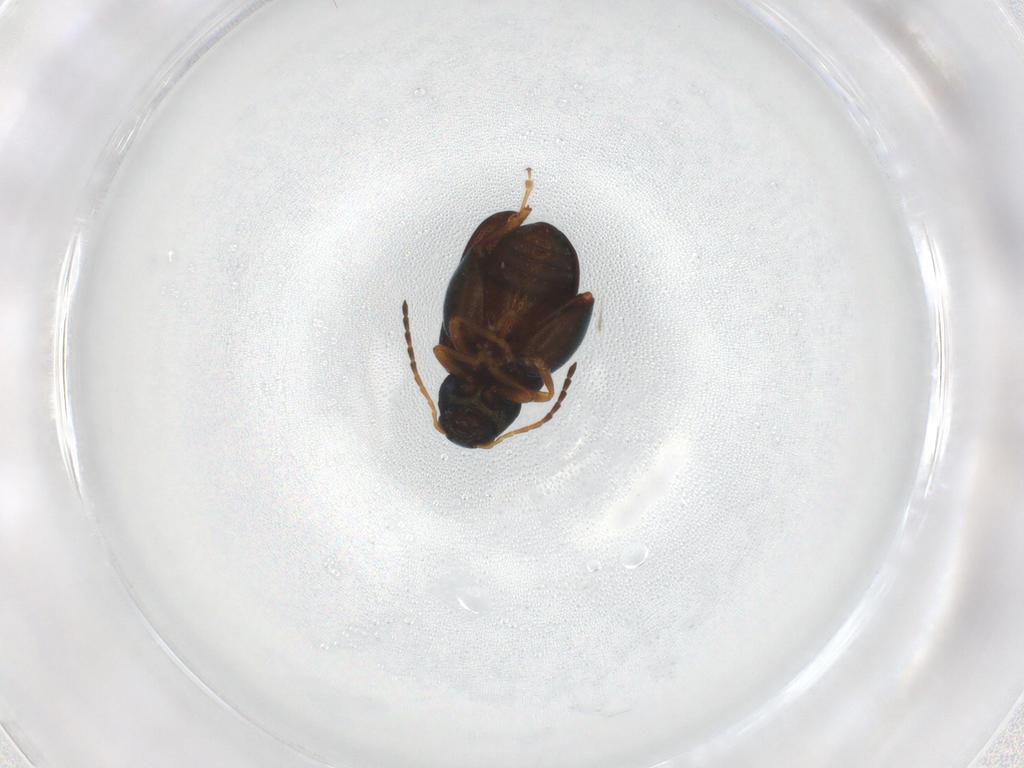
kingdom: Animalia
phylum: Arthropoda
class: Insecta
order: Coleoptera
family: Chrysomelidae
